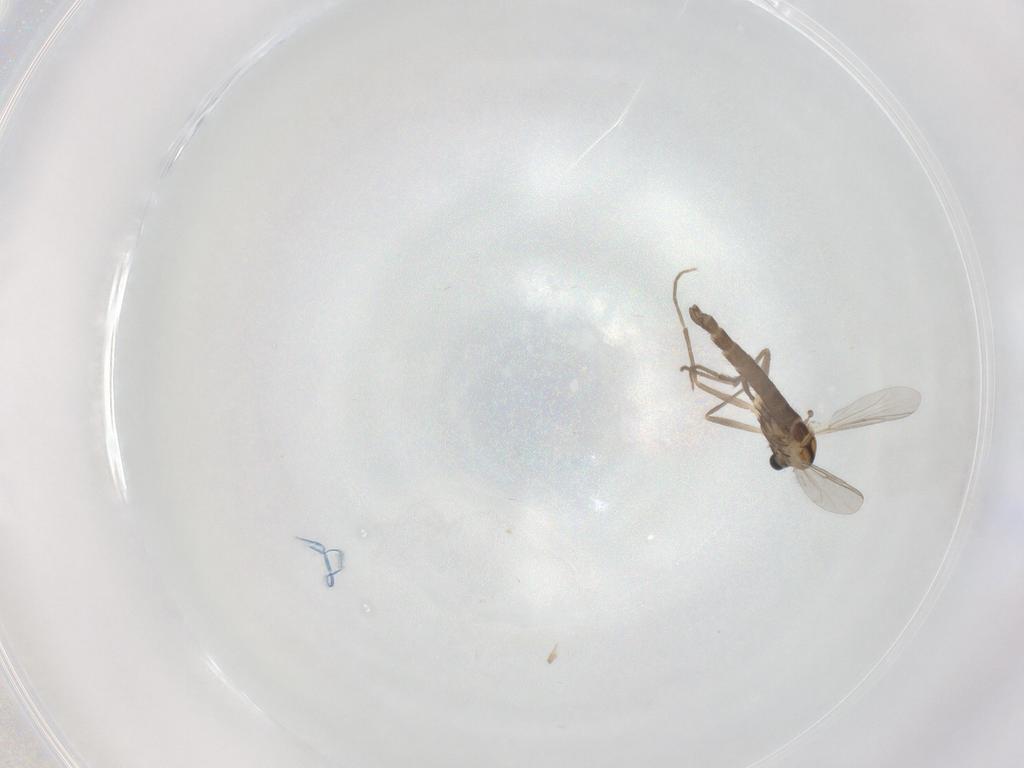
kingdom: Animalia
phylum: Arthropoda
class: Insecta
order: Diptera
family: Chironomidae
